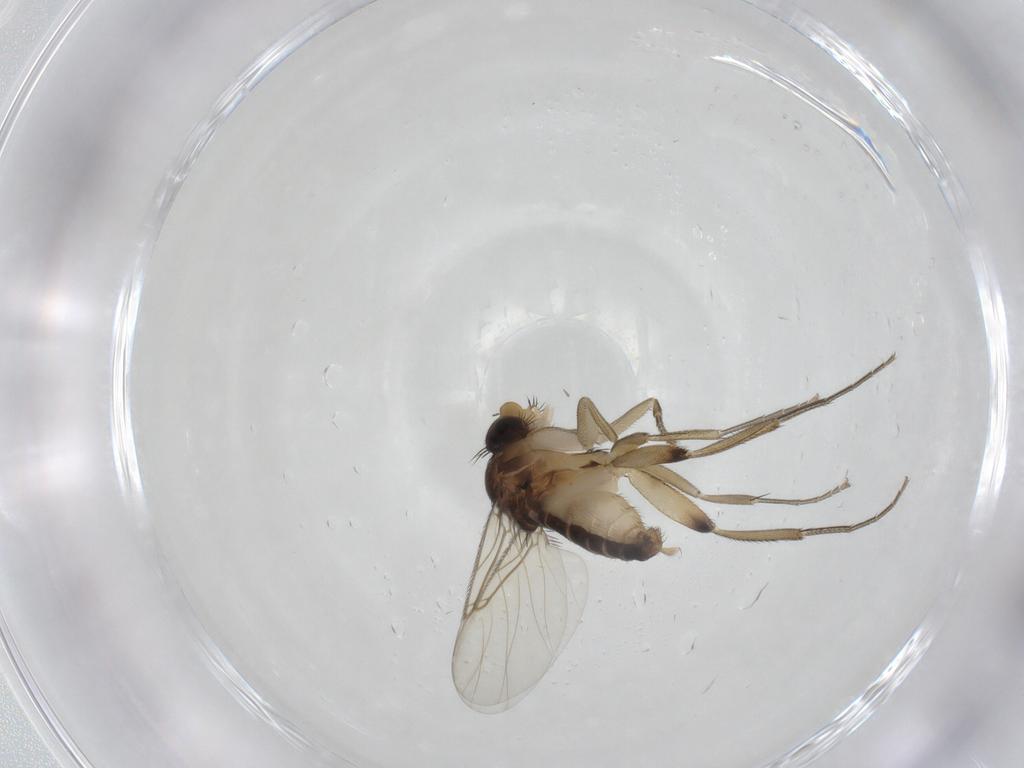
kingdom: Animalia
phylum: Arthropoda
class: Insecta
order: Diptera
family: Phoridae
